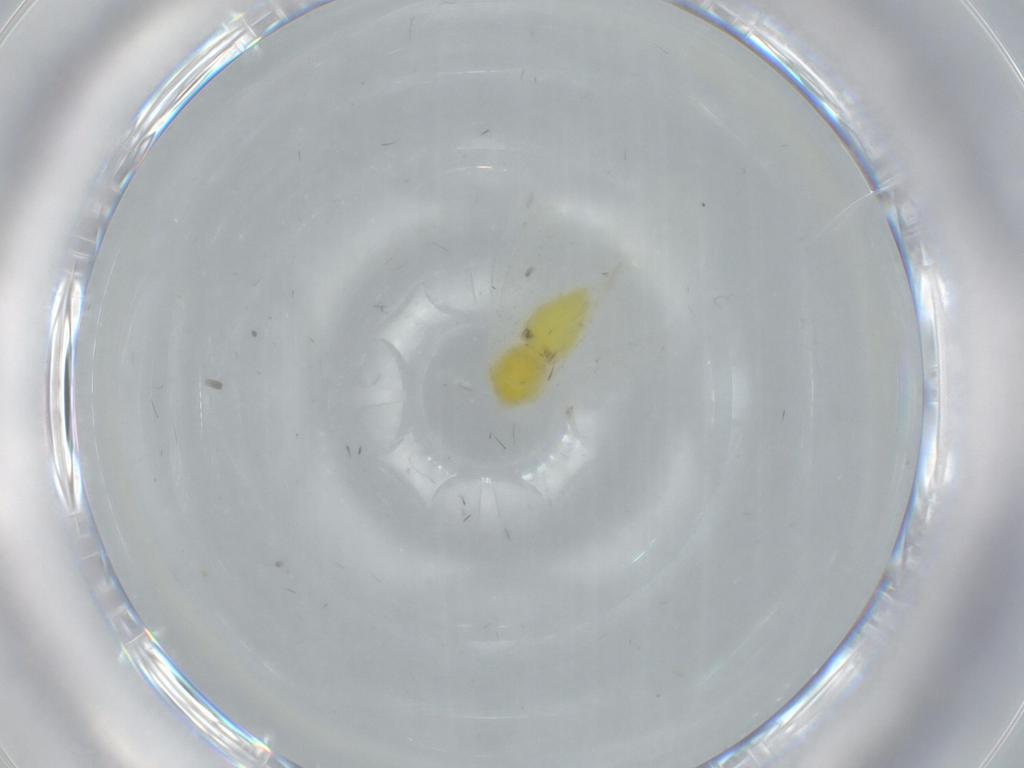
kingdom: Animalia
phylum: Arthropoda
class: Insecta
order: Hemiptera
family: Aleyrodidae
